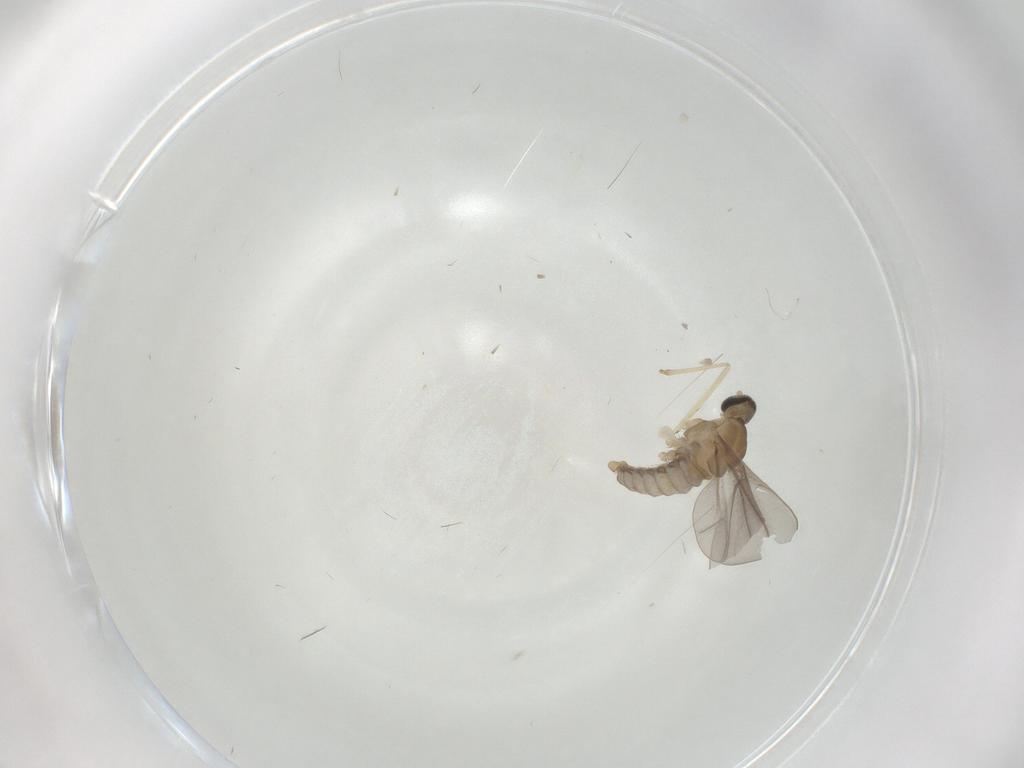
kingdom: Animalia
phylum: Arthropoda
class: Insecta
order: Diptera
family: Cecidomyiidae
